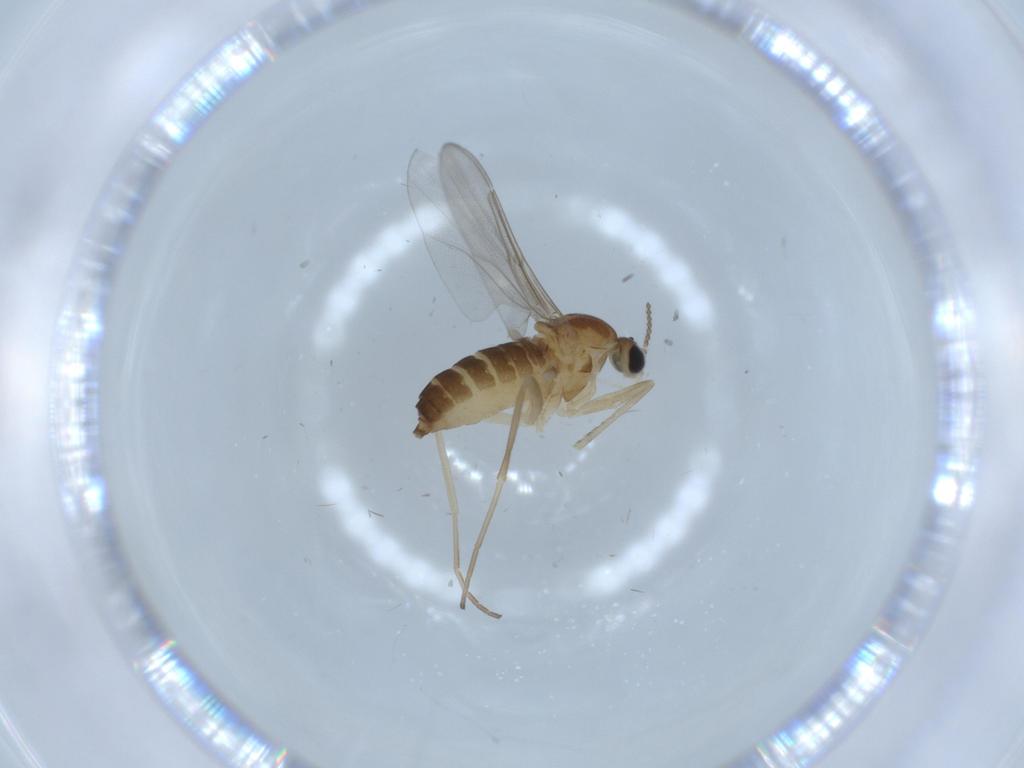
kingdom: Animalia
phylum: Arthropoda
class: Insecta
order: Diptera
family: Cecidomyiidae
